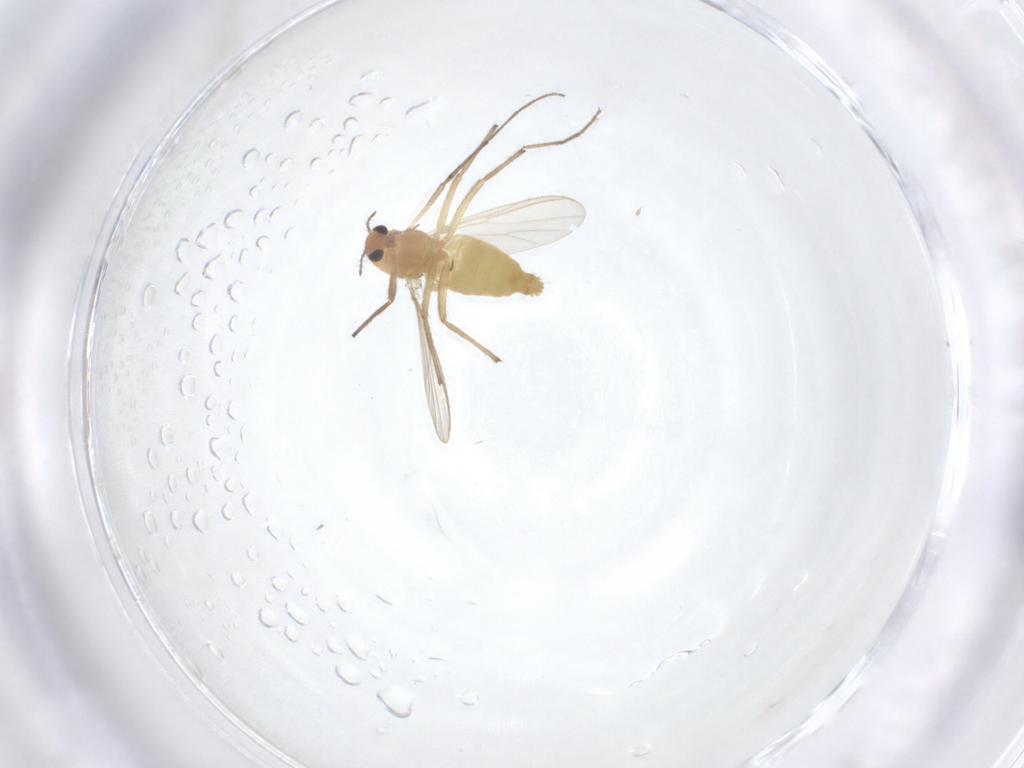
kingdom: Animalia
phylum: Arthropoda
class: Insecta
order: Diptera
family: Chironomidae
